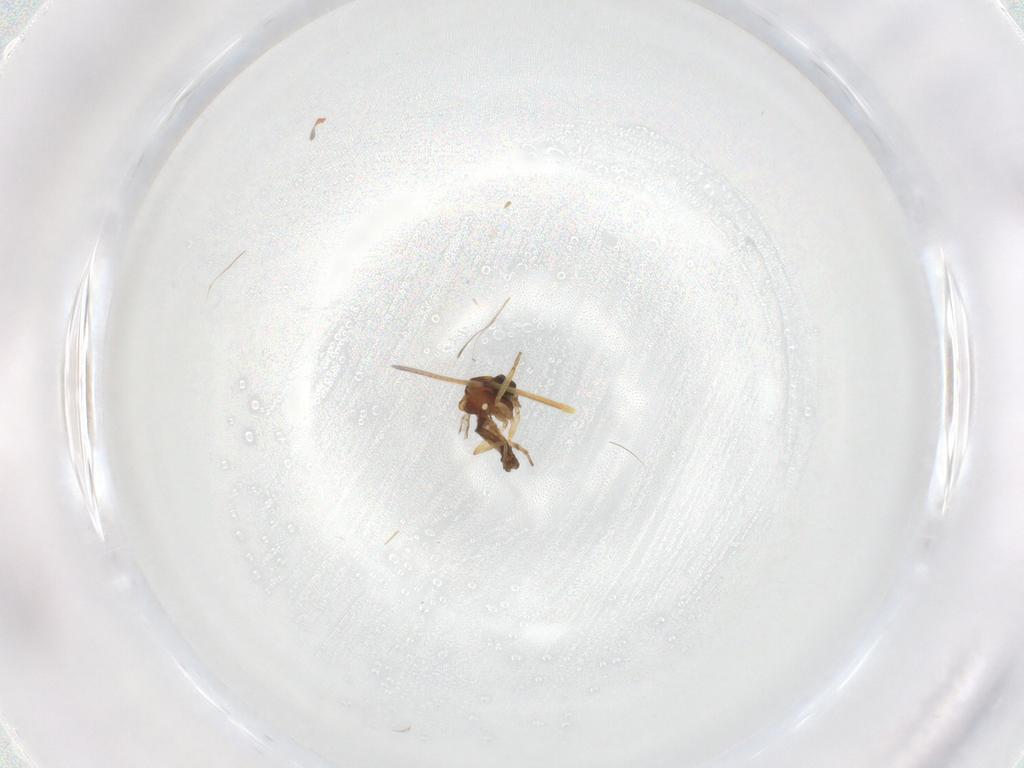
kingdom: Animalia
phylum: Arthropoda
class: Insecta
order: Diptera
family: Ceratopogonidae
